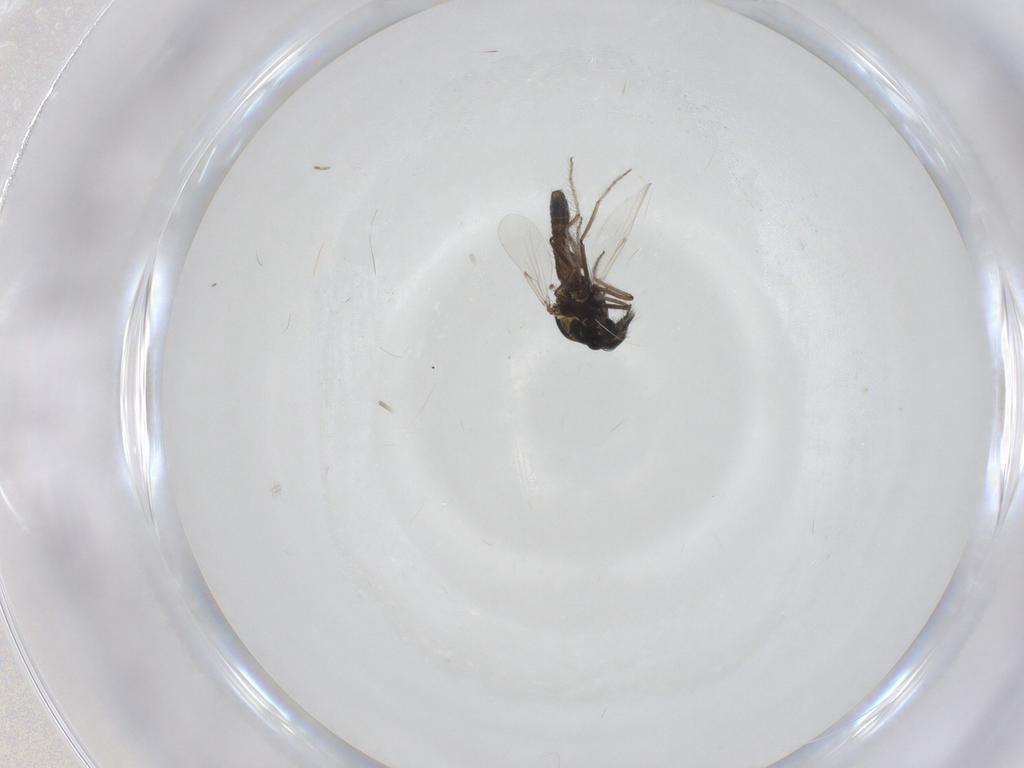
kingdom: Animalia
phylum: Arthropoda
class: Insecta
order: Diptera
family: Ceratopogonidae
